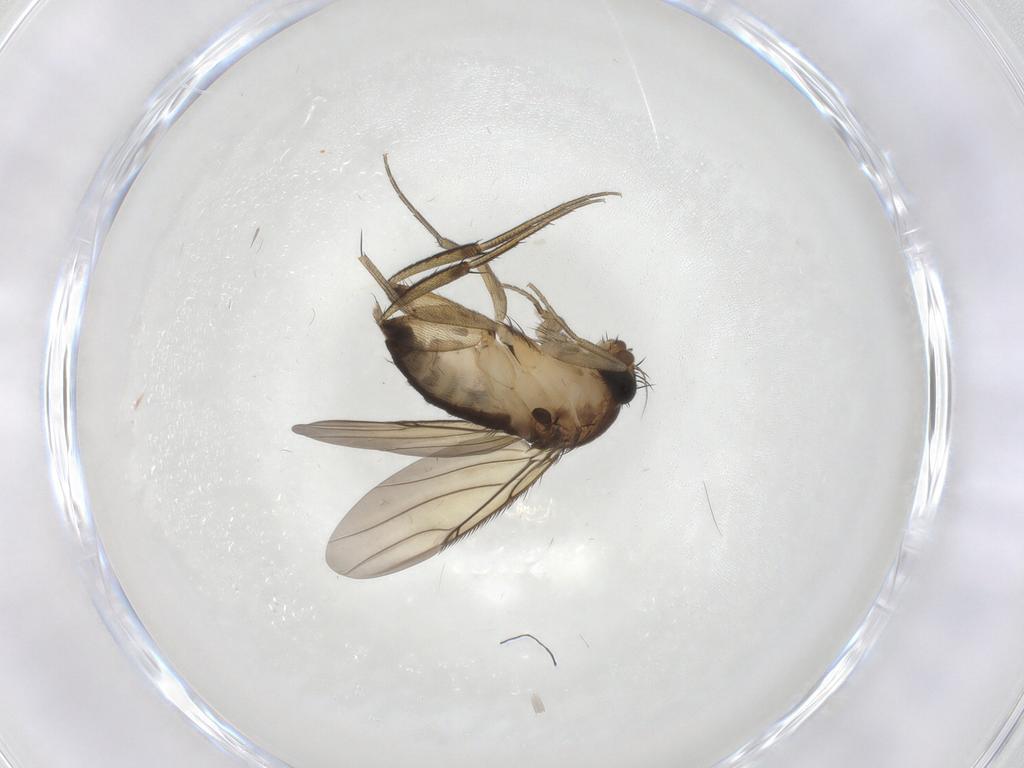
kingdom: Animalia
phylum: Arthropoda
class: Insecta
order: Diptera
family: Phoridae
